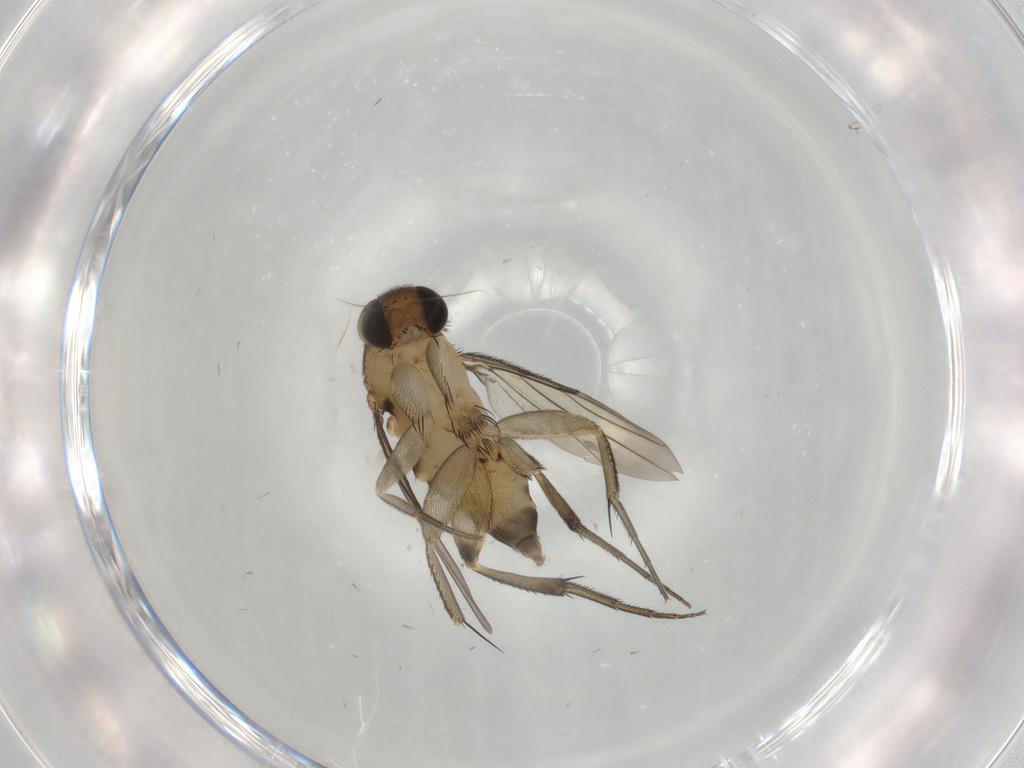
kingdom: Animalia
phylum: Arthropoda
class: Insecta
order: Diptera
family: Phoridae
